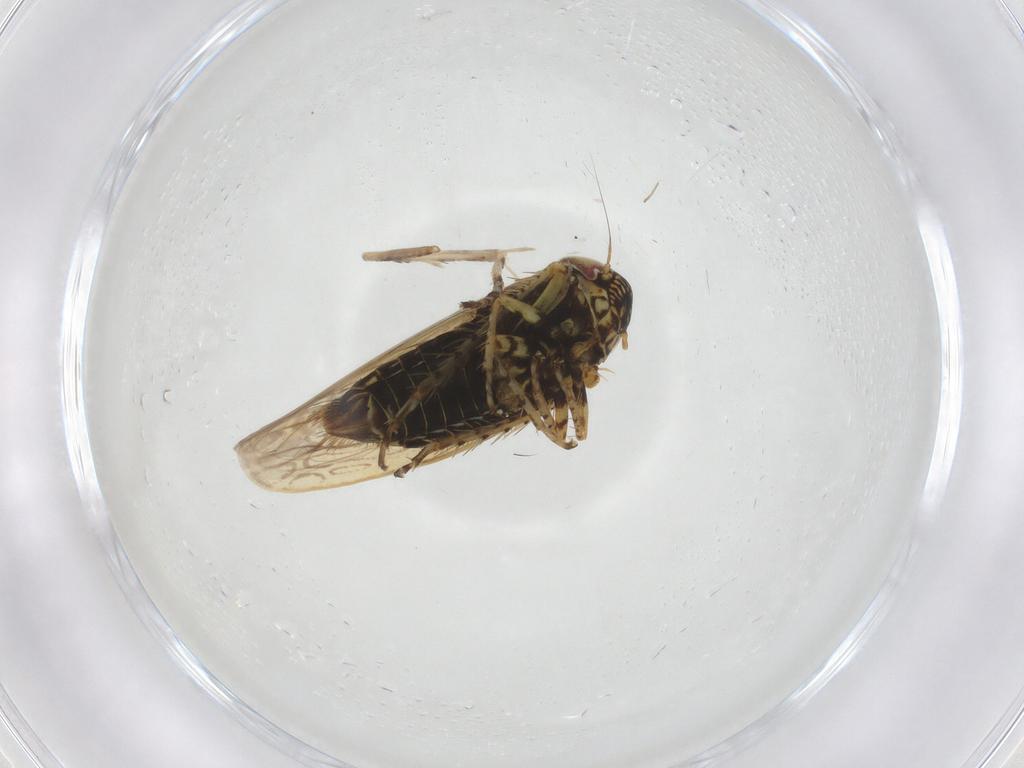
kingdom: Animalia
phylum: Arthropoda
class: Insecta
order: Hemiptera
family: Cicadellidae
